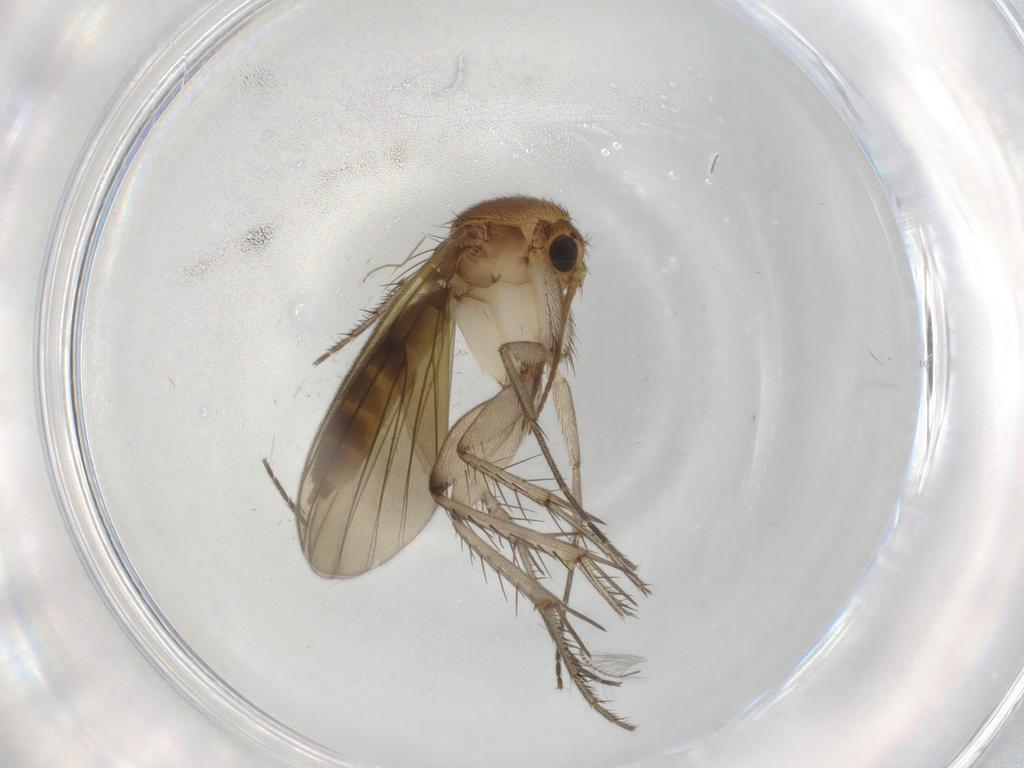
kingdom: Animalia
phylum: Arthropoda
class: Insecta
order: Diptera
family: Mycetophilidae
